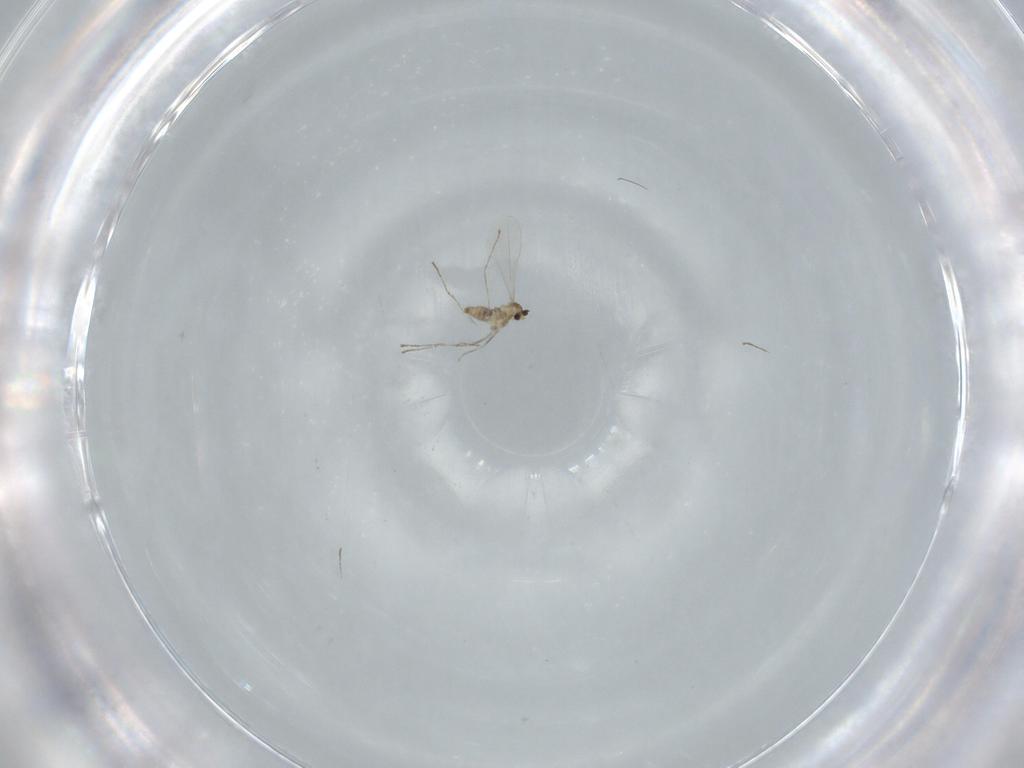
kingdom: Animalia
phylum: Arthropoda
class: Insecta
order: Diptera
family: Cecidomyiidae
